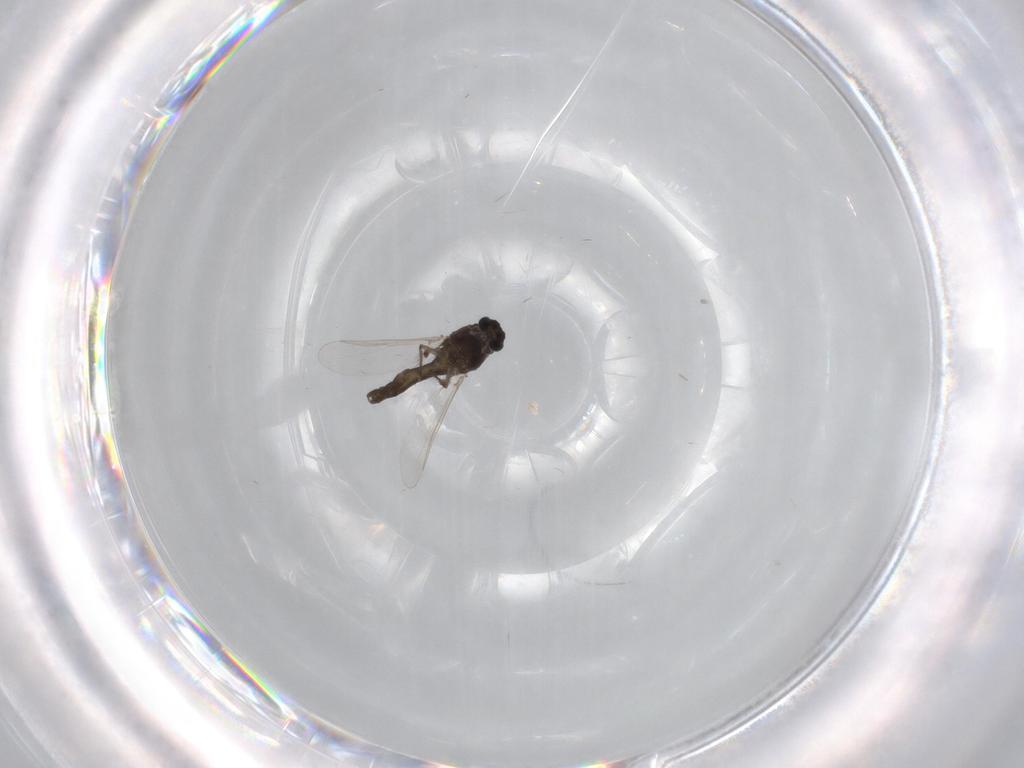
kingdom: Animalia
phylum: Arthropoda
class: Insecta
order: Diptera
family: Chironomidae
